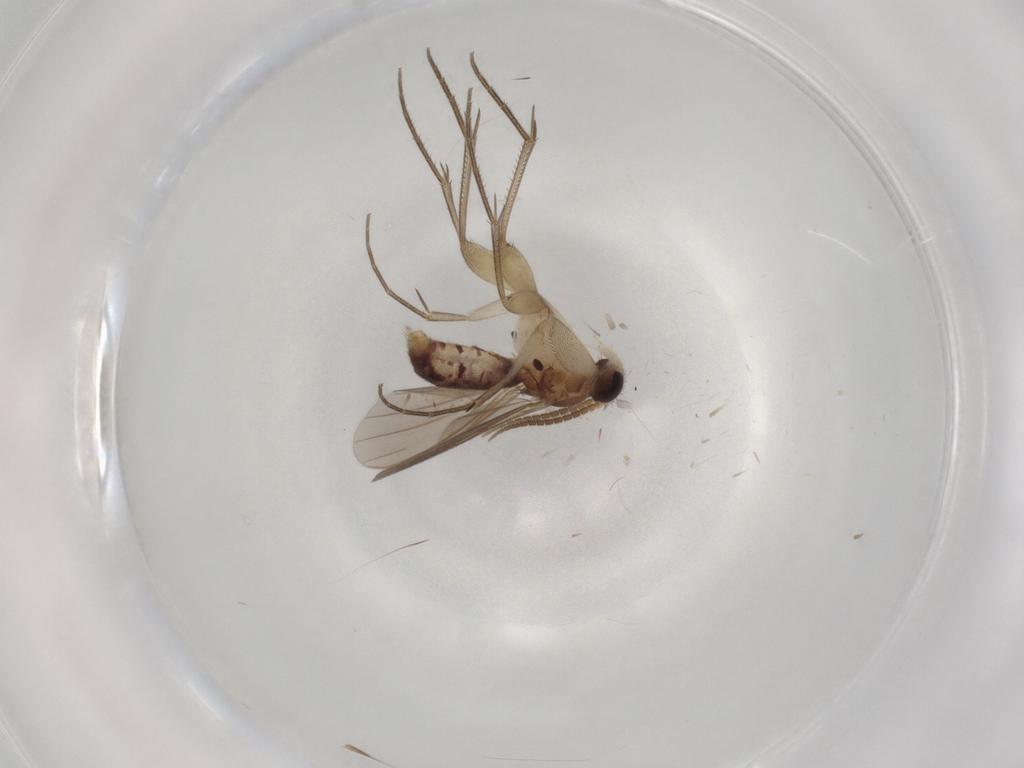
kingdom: Animalia
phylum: Arthropoda
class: Insecta
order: Diptera
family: Mycetophilidae
